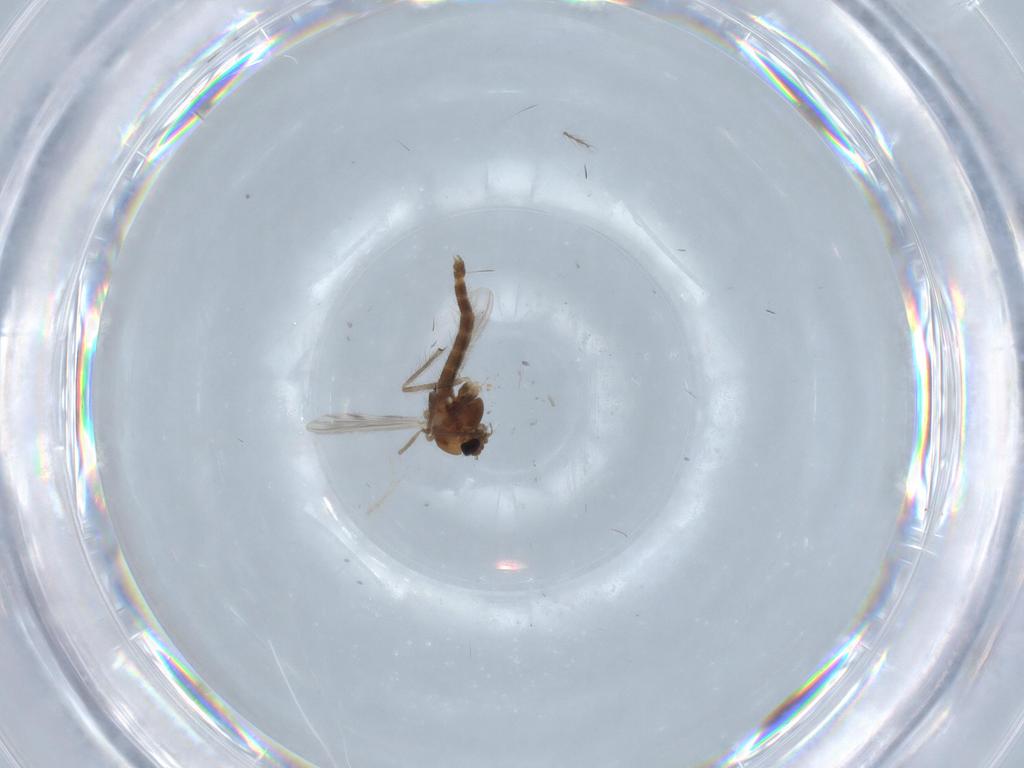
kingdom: Animalia
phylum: Arthropoda
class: Insecta
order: Diptera
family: Chironomidae
